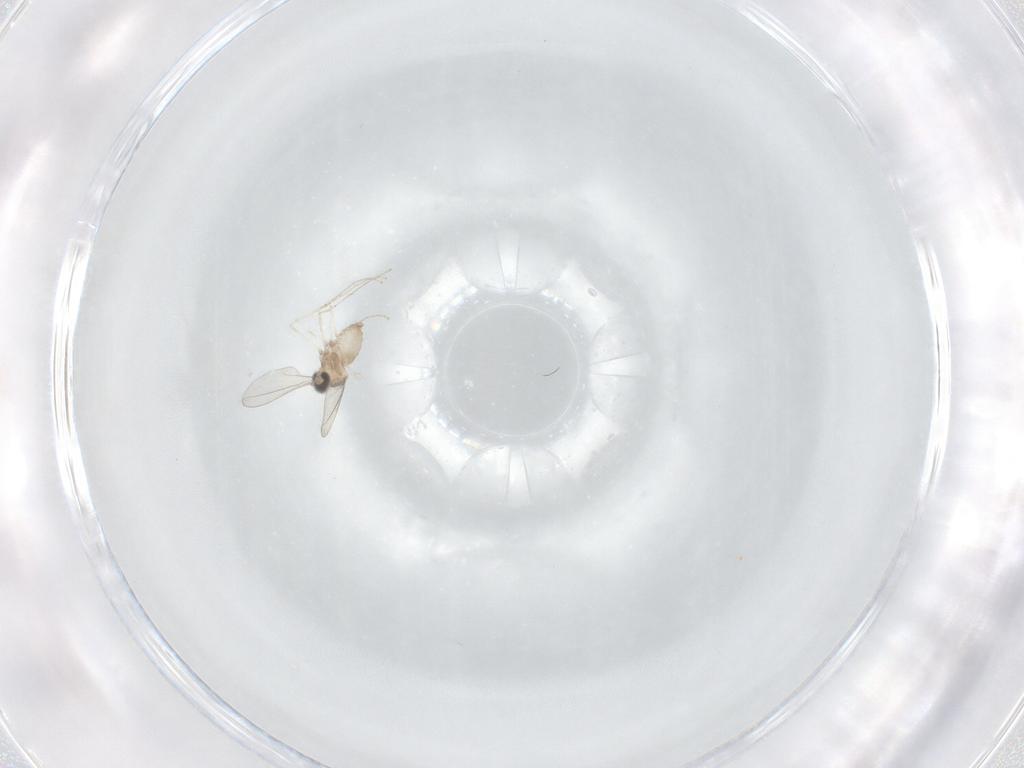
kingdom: Animalia
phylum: Arthropoda
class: Insecta
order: Diptera
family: Cecidomyiidae
